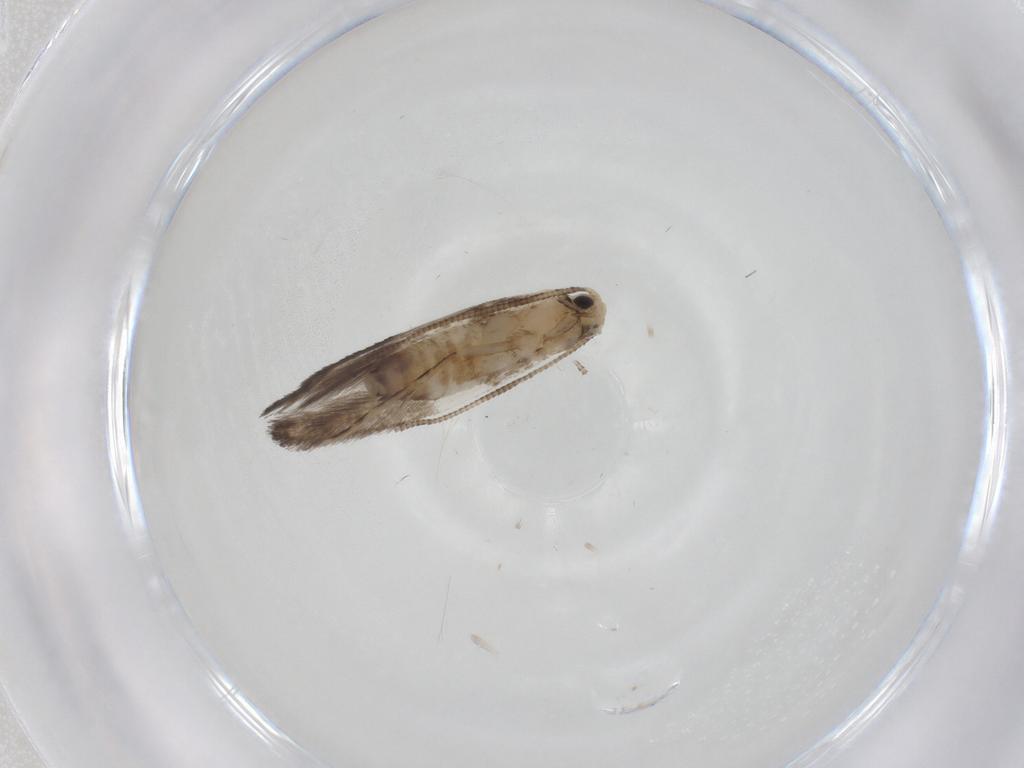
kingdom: Animalia
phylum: Arthropoda
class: Insecta
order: Lepidoptera
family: Tineidae
